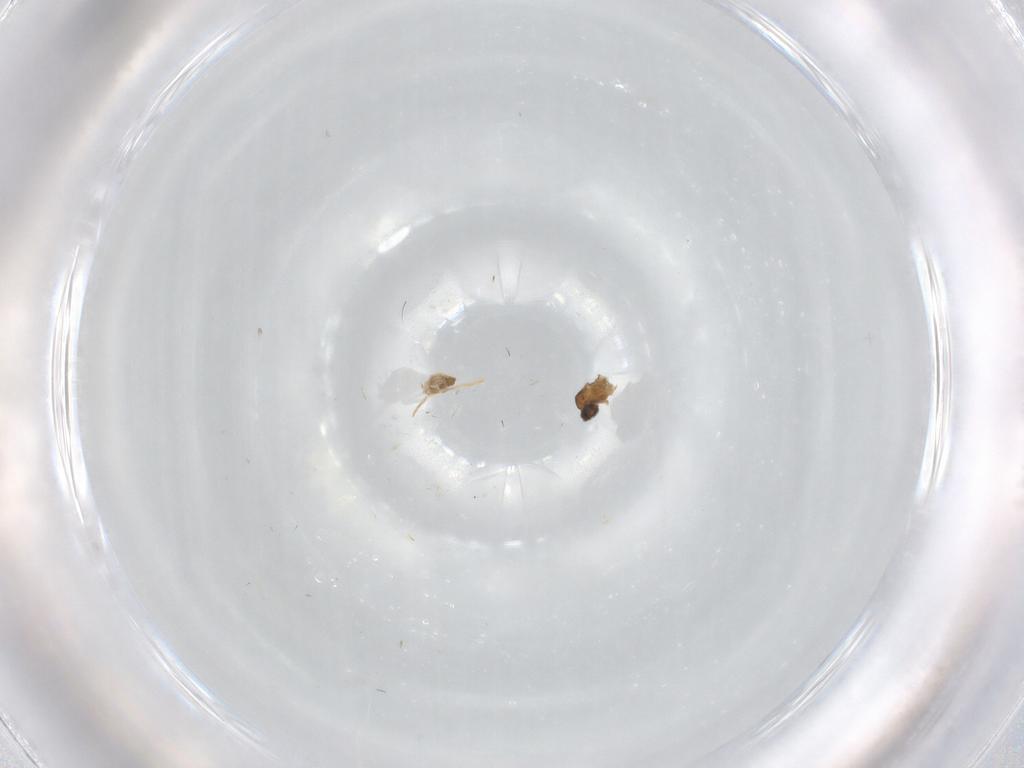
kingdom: Animalia
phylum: Arthropoda
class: Insecta
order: Diptera
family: Cecidomyiidae
